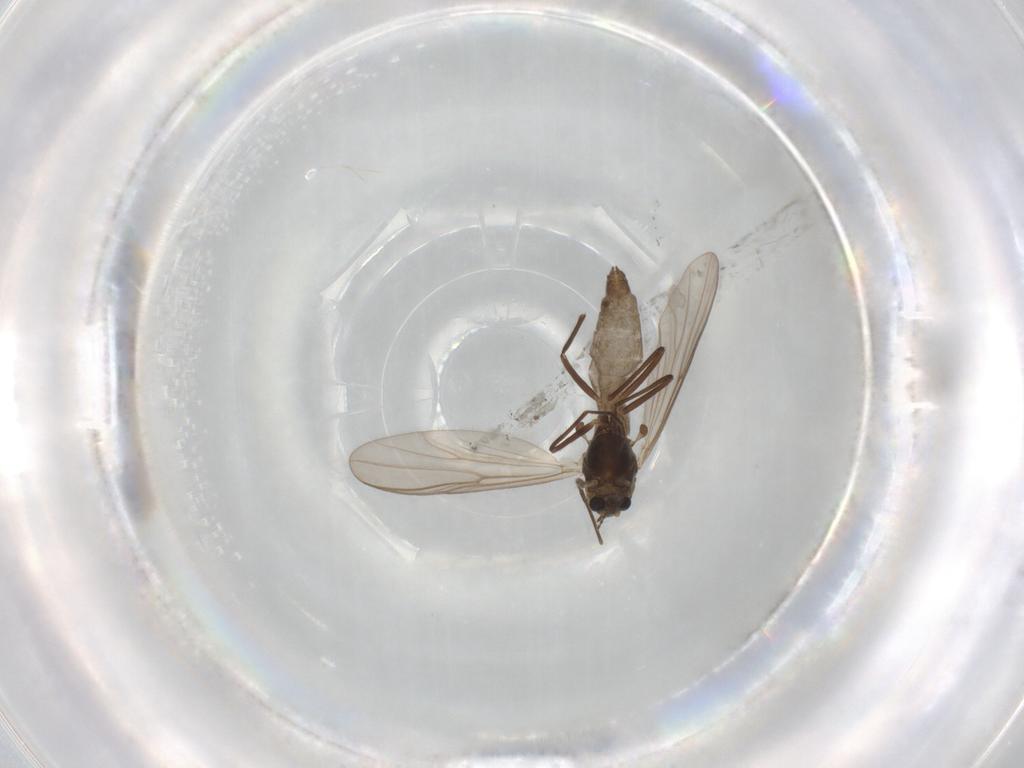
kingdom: Animalia
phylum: Arthropoda
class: Insecta
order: Diptera
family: Chironomidae
